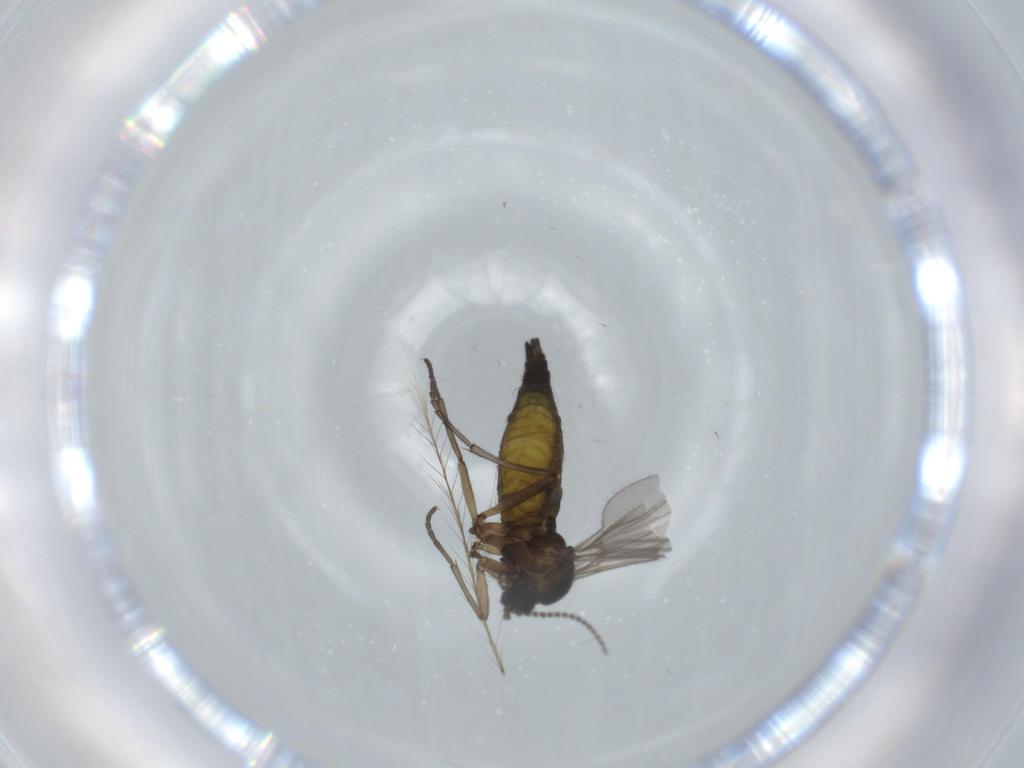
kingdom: Animalia
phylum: Arthropoda
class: Insecta
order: Diptera
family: Sciaridae
